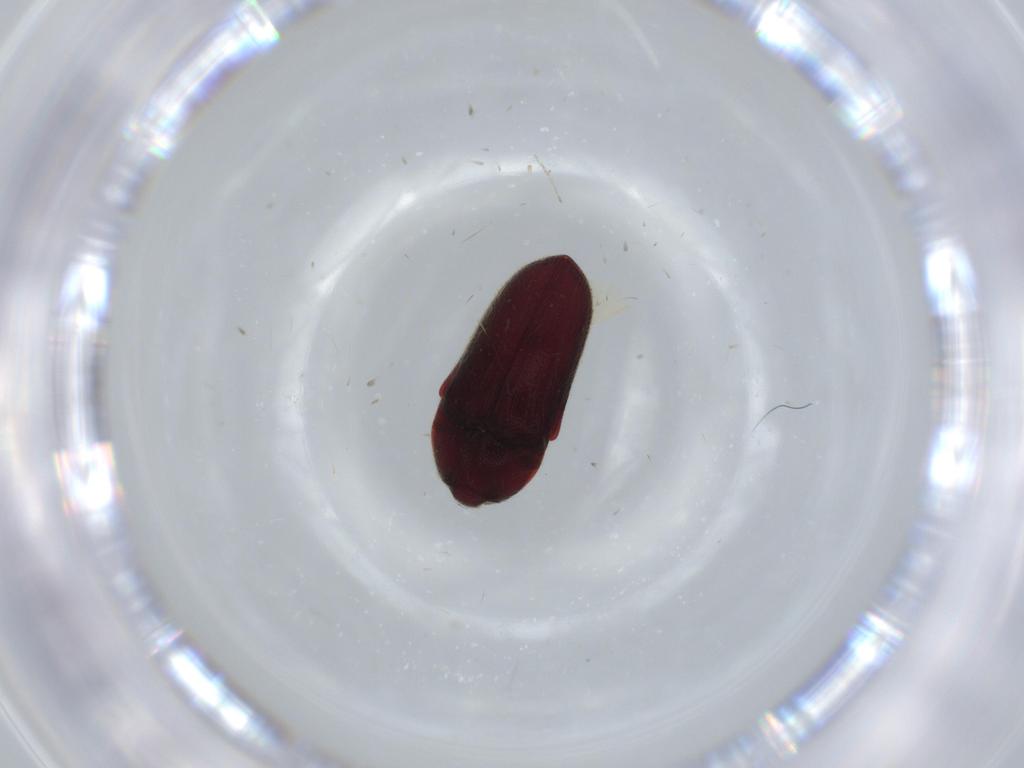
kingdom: Animalia
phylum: Arthropoda
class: Insecta
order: Coleoptera
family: Throscidae
